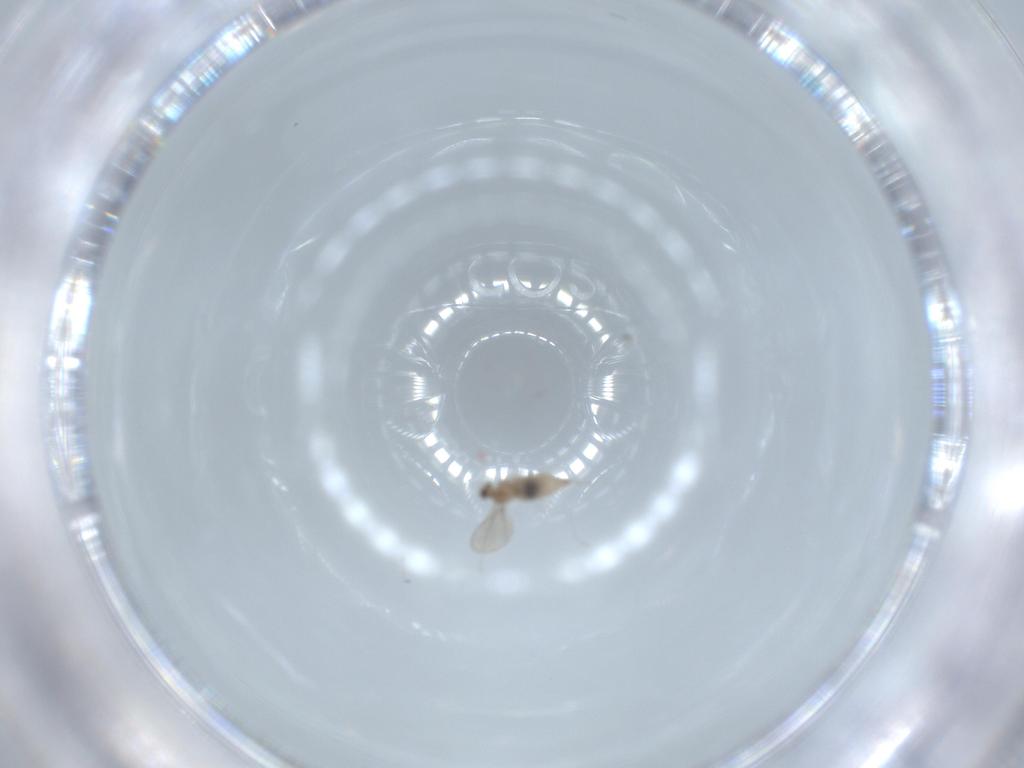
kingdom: Animalia
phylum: Arthropoda
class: Insecta
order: Diptera
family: Cecidomyiidae
